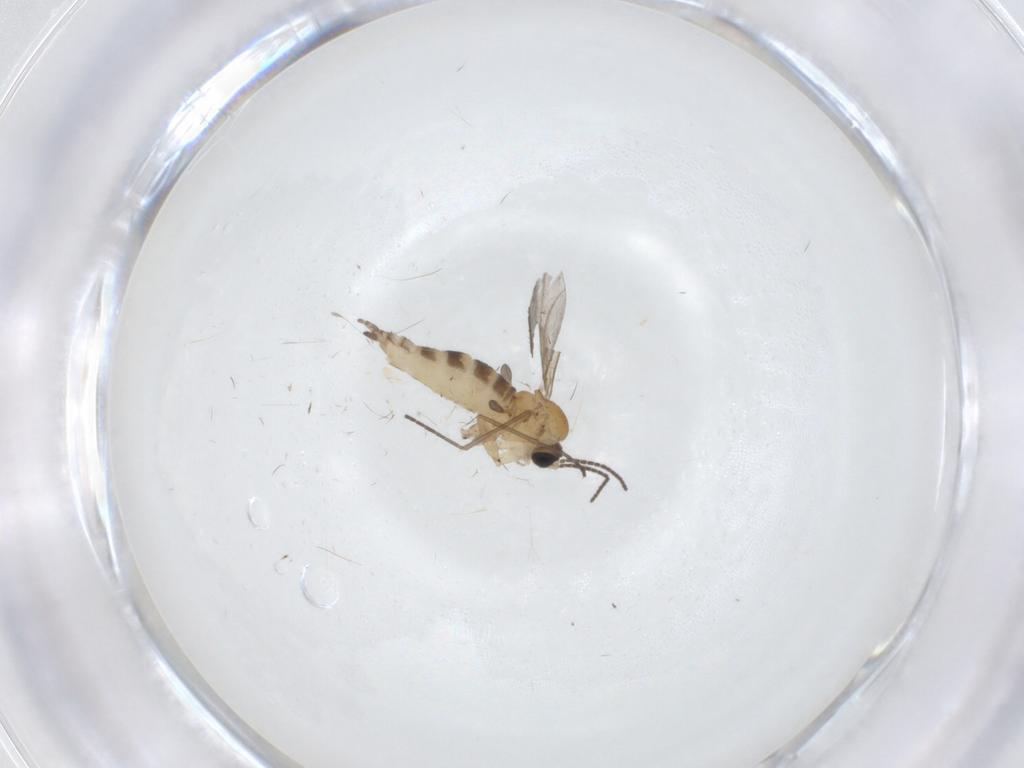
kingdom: Animalia
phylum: Arthropoda
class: Insecta
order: Diptera
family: Sciaridae
